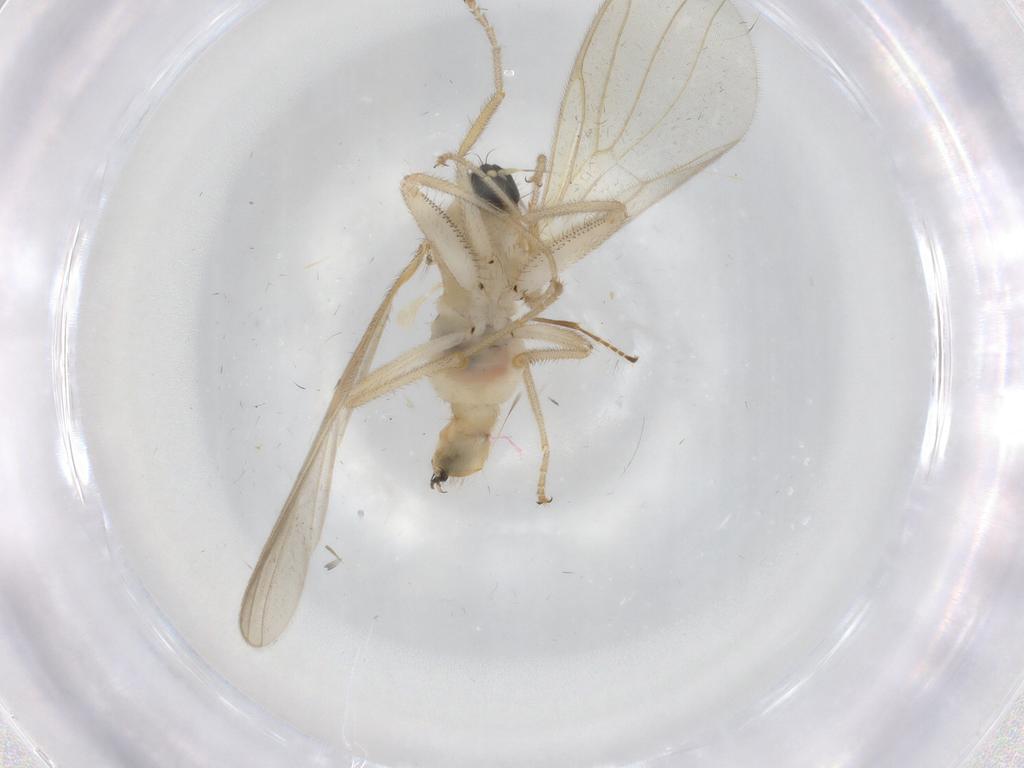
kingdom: Animalia
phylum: Arthropoda
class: Insecta
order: Diptera
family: Hybotidae
